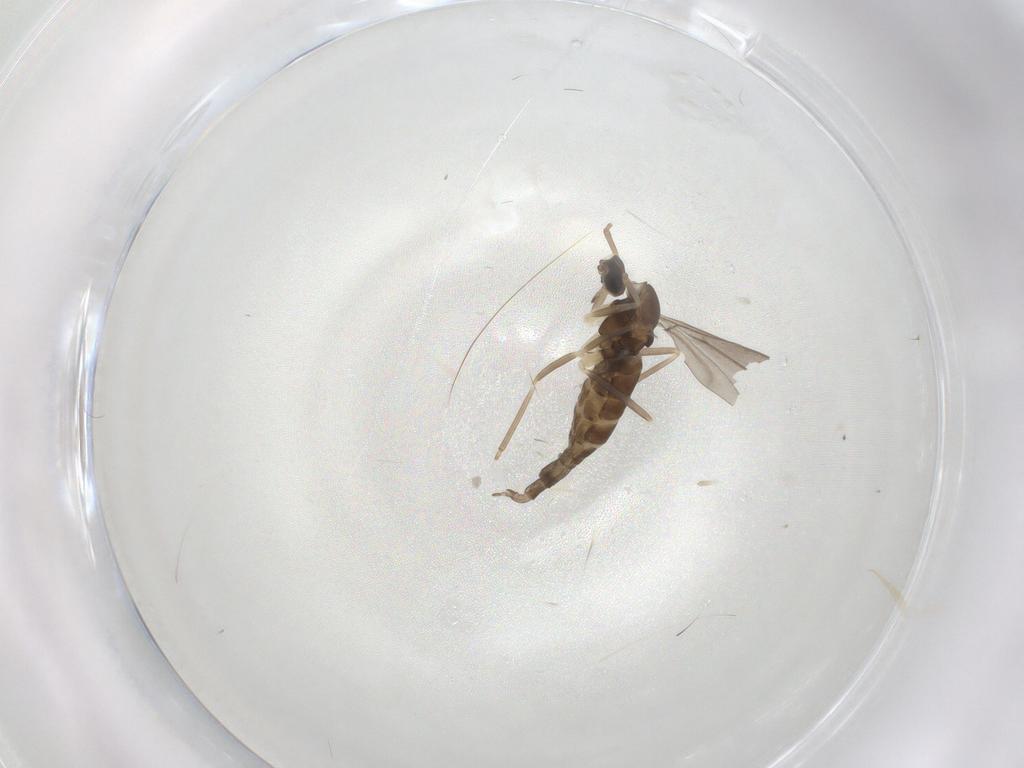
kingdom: Animalia
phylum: Arthropoda
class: Insecta
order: Diptera
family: Cecidomyiidae
